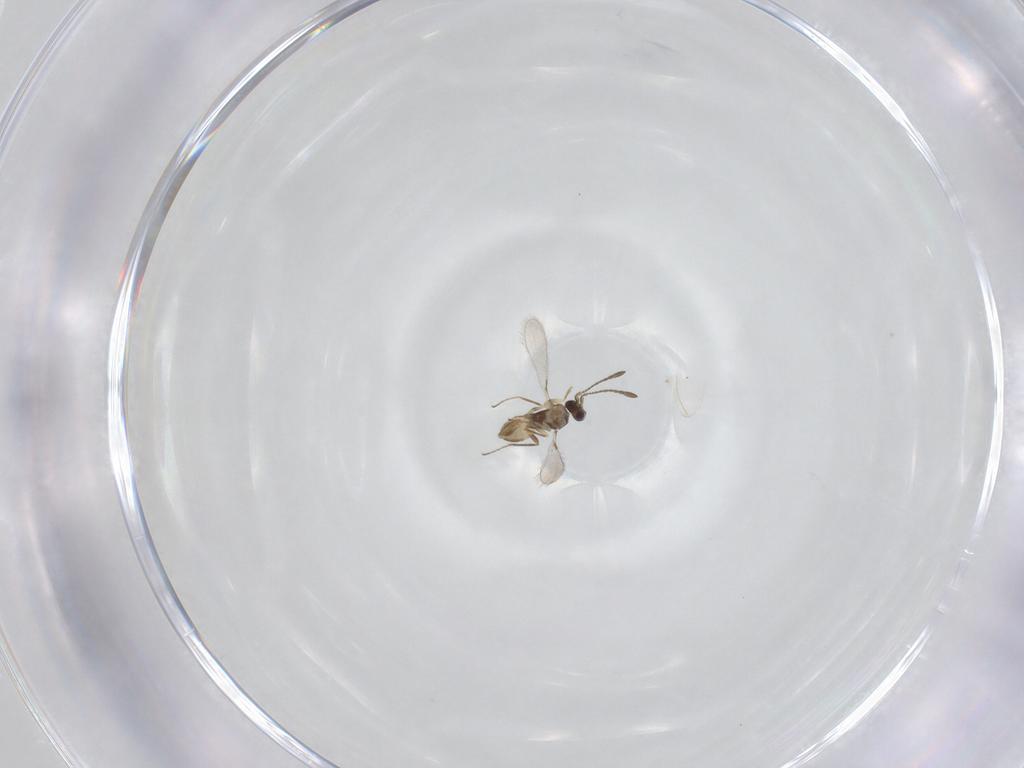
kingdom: Animalia
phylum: Arthropoda
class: Insecta
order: Hymenoptera
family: Mymaridae
